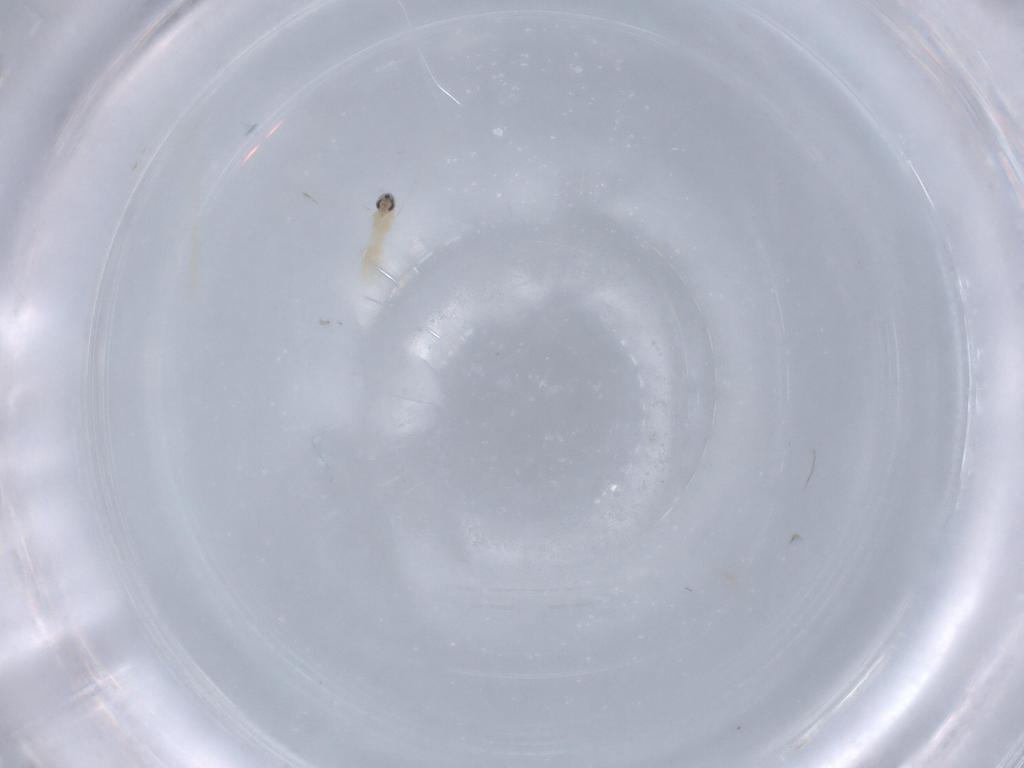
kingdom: Animalia
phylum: Arthropoda
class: Insecta
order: Diptera
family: Cecidomyiidae
